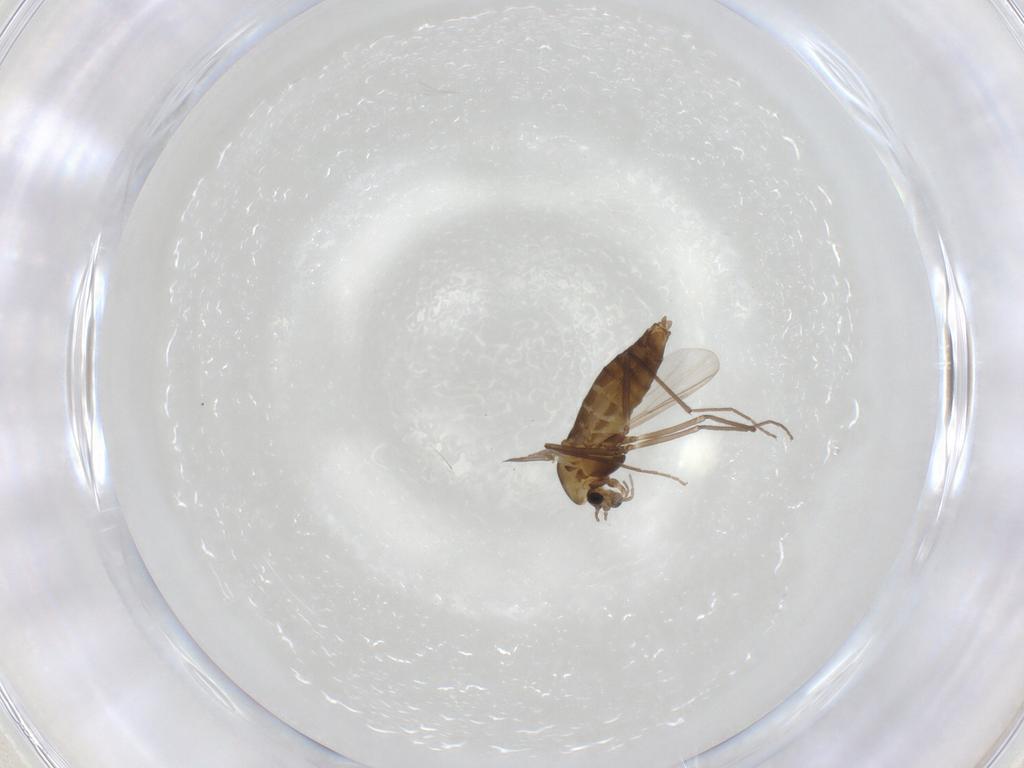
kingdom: Animalia
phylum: Arthropoda
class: Insecta
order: Diptera
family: Chironomidae
